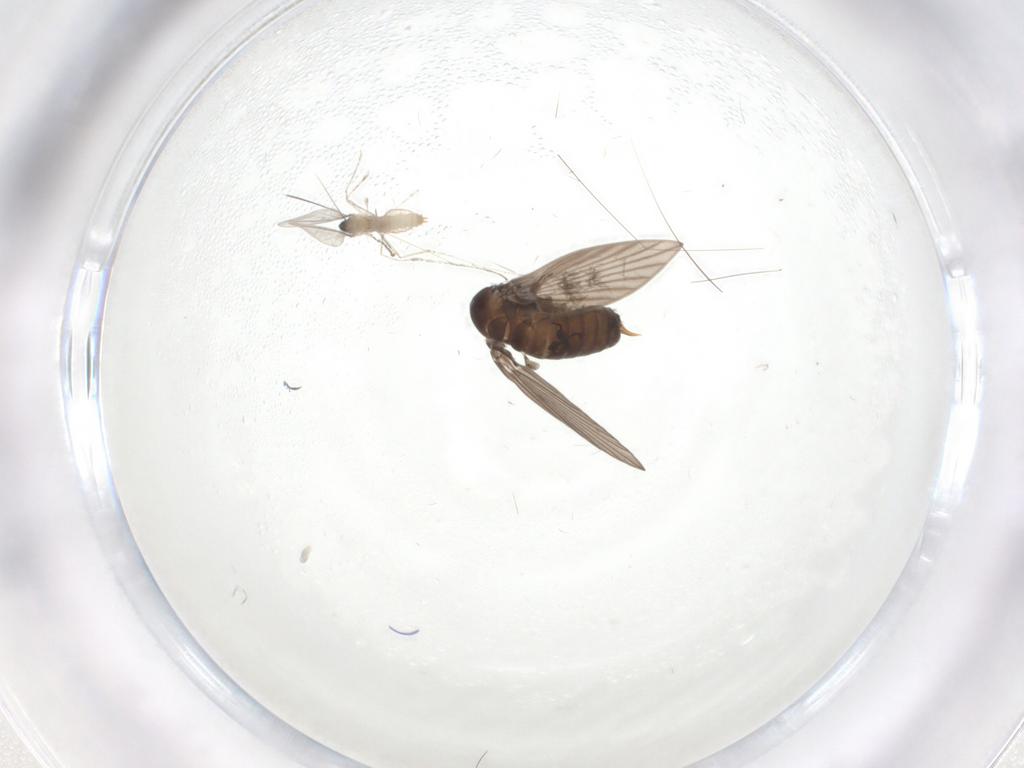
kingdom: Animalia
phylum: Arthropoda
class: Insecta
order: Diptera
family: Cecidomyiidae
